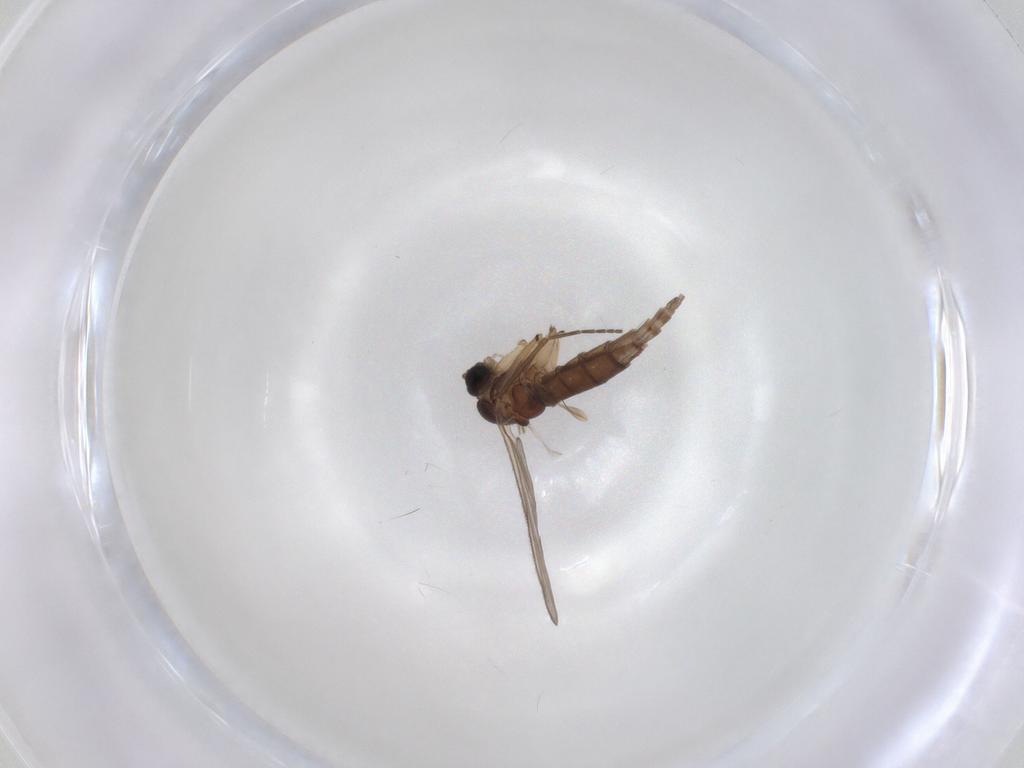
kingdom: Animalia
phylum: Arthropoda
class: Insecta
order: Diptera
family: Sciaridae
